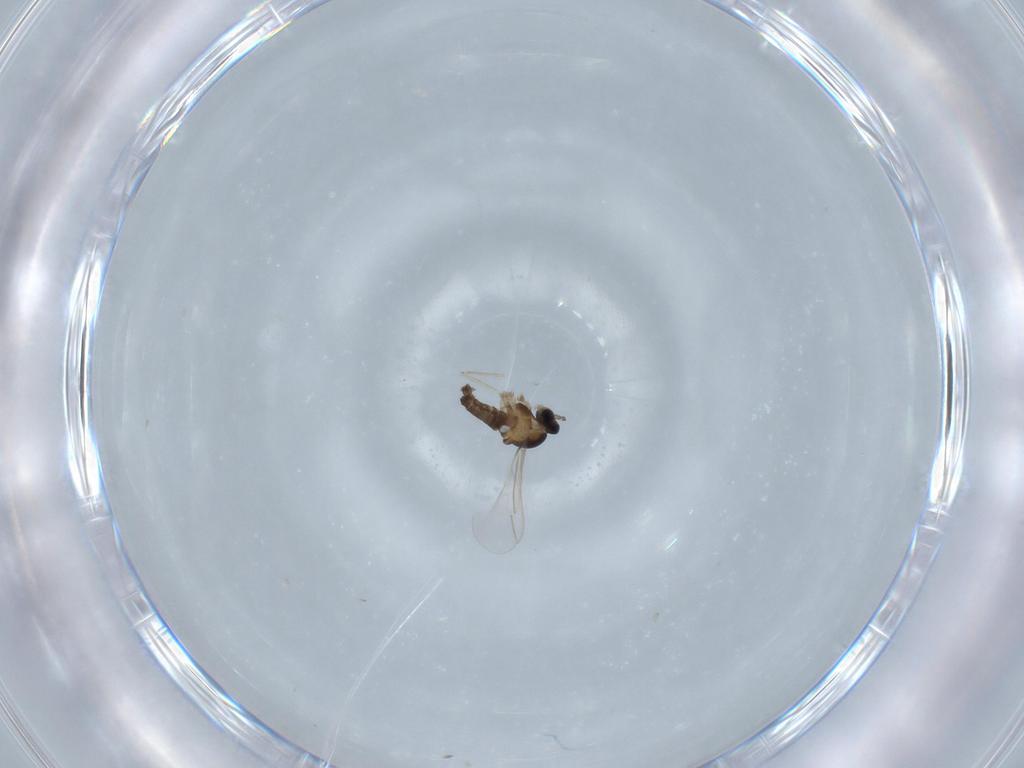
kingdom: Animalia
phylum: Arthropoda
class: Insecta
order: Diptera
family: Cecidomyiidae
